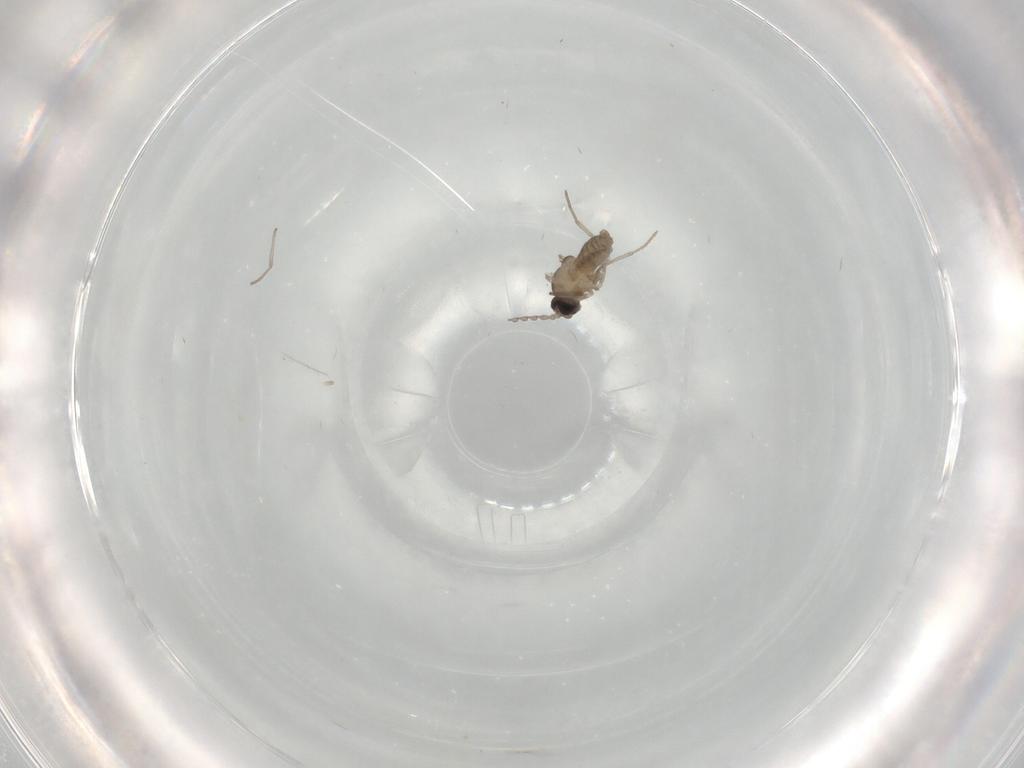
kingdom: Animalia
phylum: Arthropoda
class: Insecta
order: Diptera
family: Cecidomyiidae
